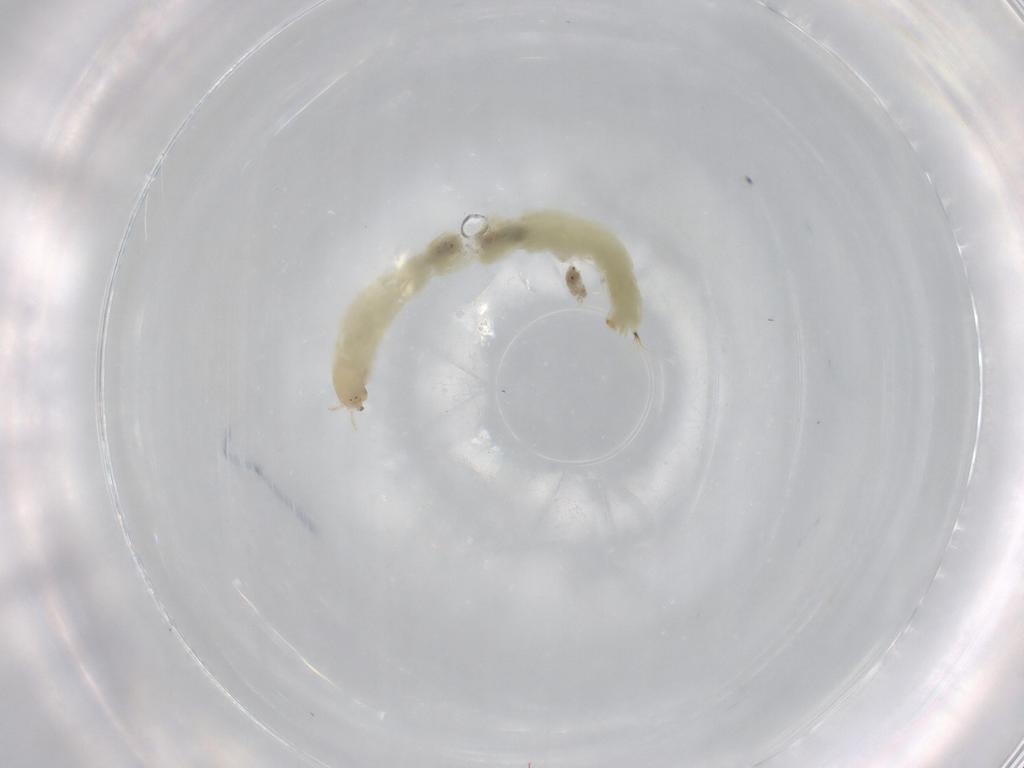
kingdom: Animalia
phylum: Arthropoda
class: Insecta
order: Diptera
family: Chironomidae
